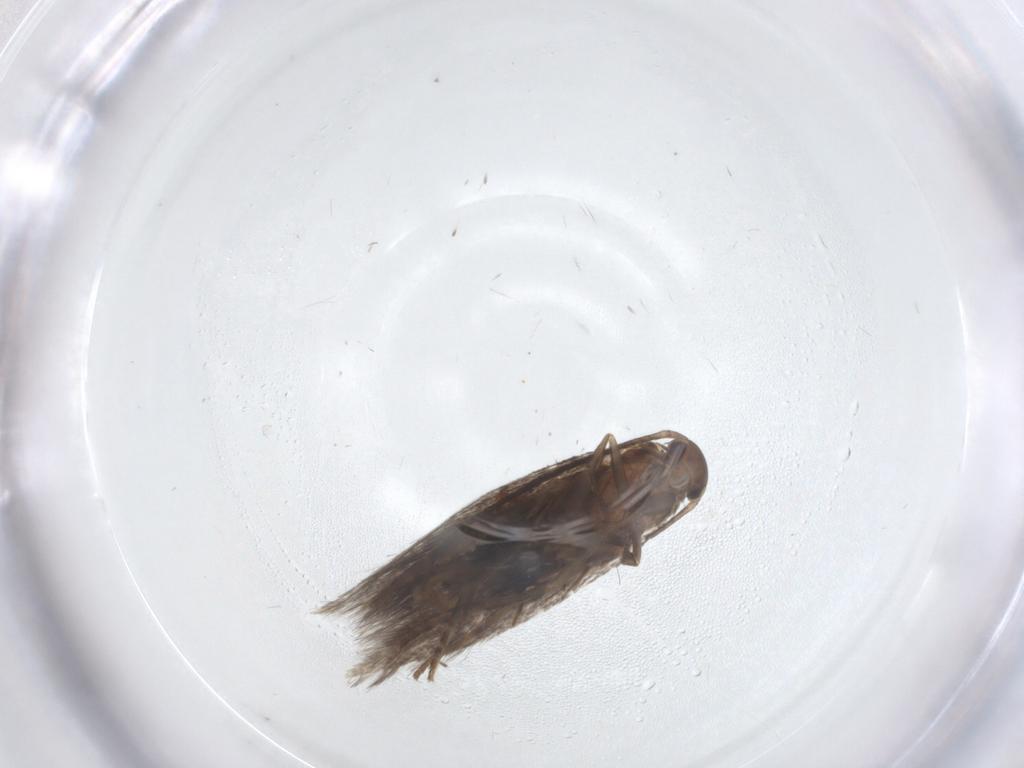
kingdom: Animalia
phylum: Arthropoda
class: Insecta
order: Lepidoptera
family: Elachistidae
